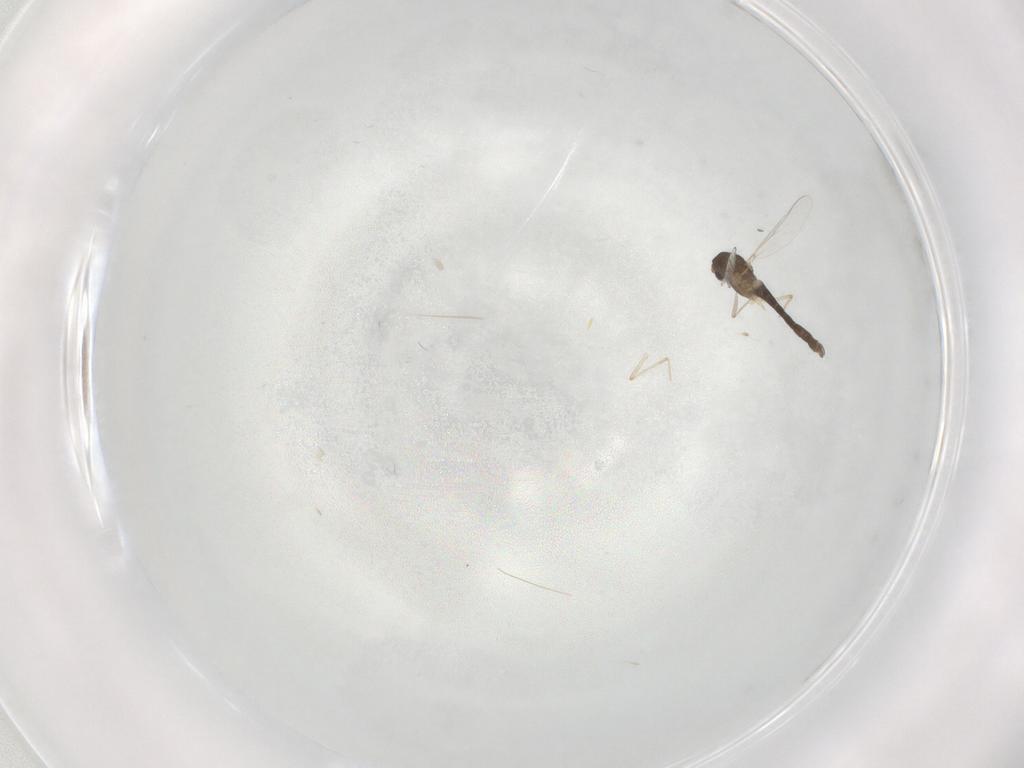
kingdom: Animalia
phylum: Arthropoda
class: Insecta
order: Diptera
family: Chironomidae
